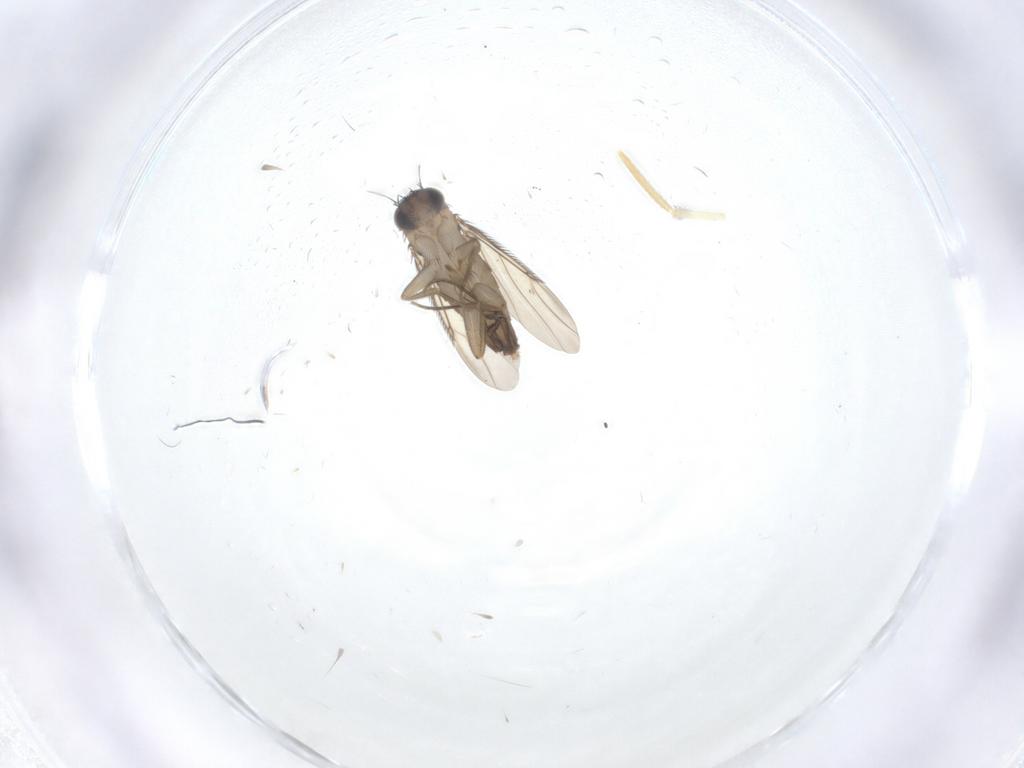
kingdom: Animalia
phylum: Arthropoda
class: Insecta
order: Diptera
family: Phoridae
